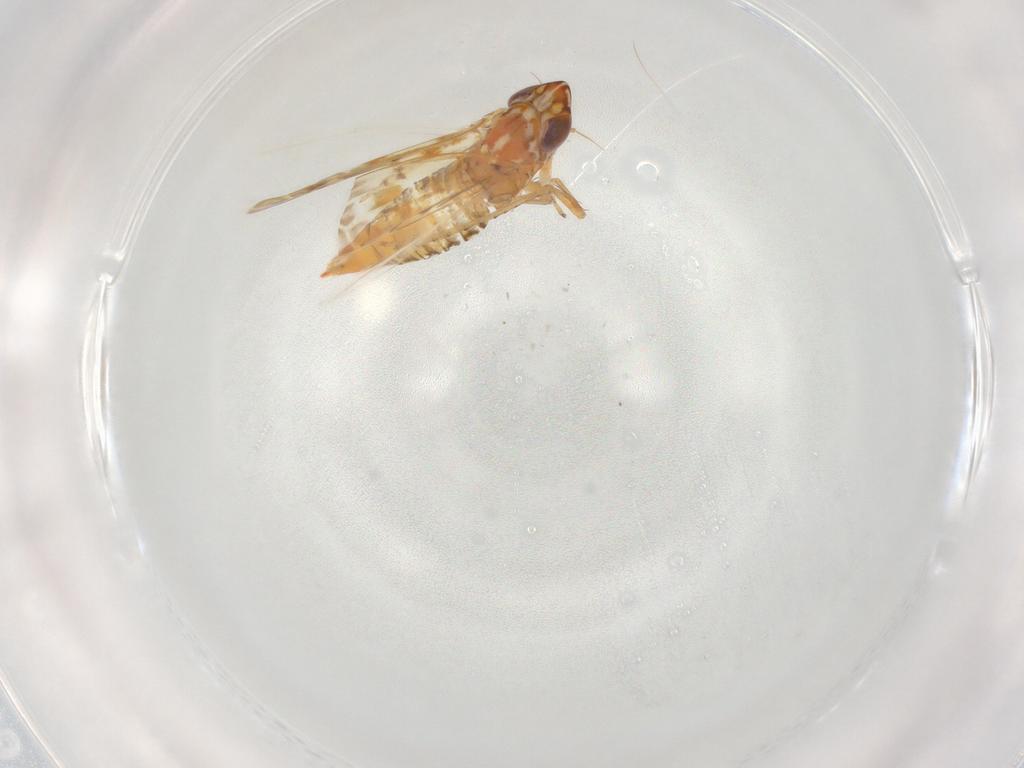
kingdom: Animalia
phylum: Arthropoda
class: Insecta
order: Hemiptera
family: Cicadellidae
